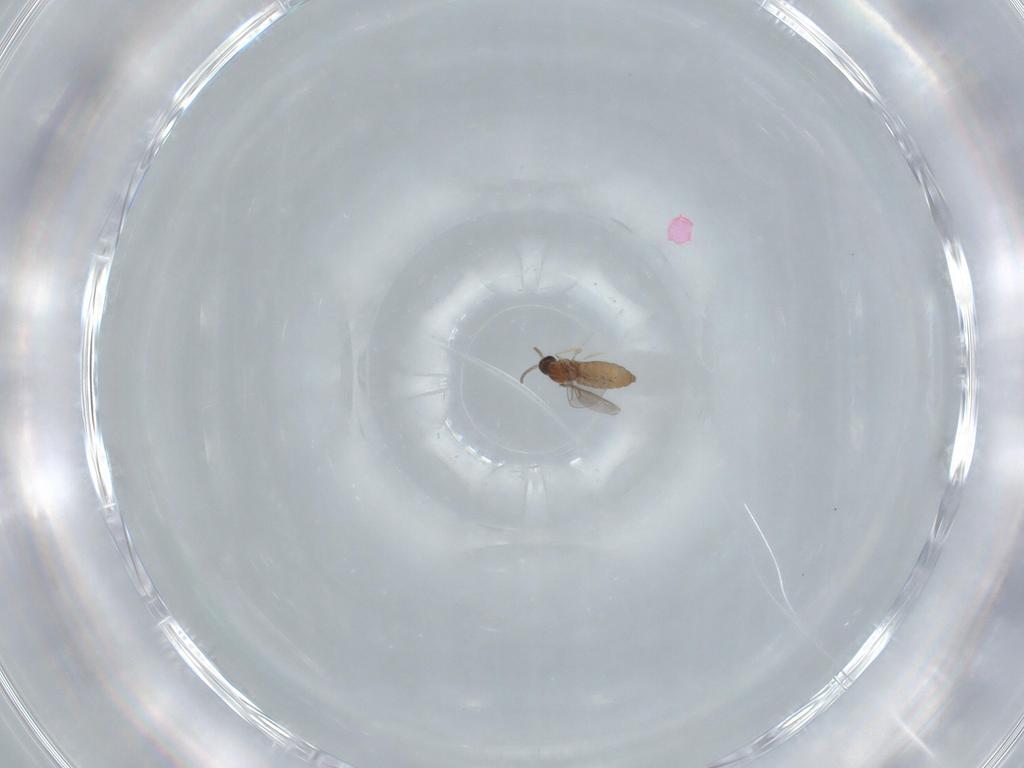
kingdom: Animalia
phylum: Arthropoda
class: Insecta
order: Diptera
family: Cecidomyiidae
